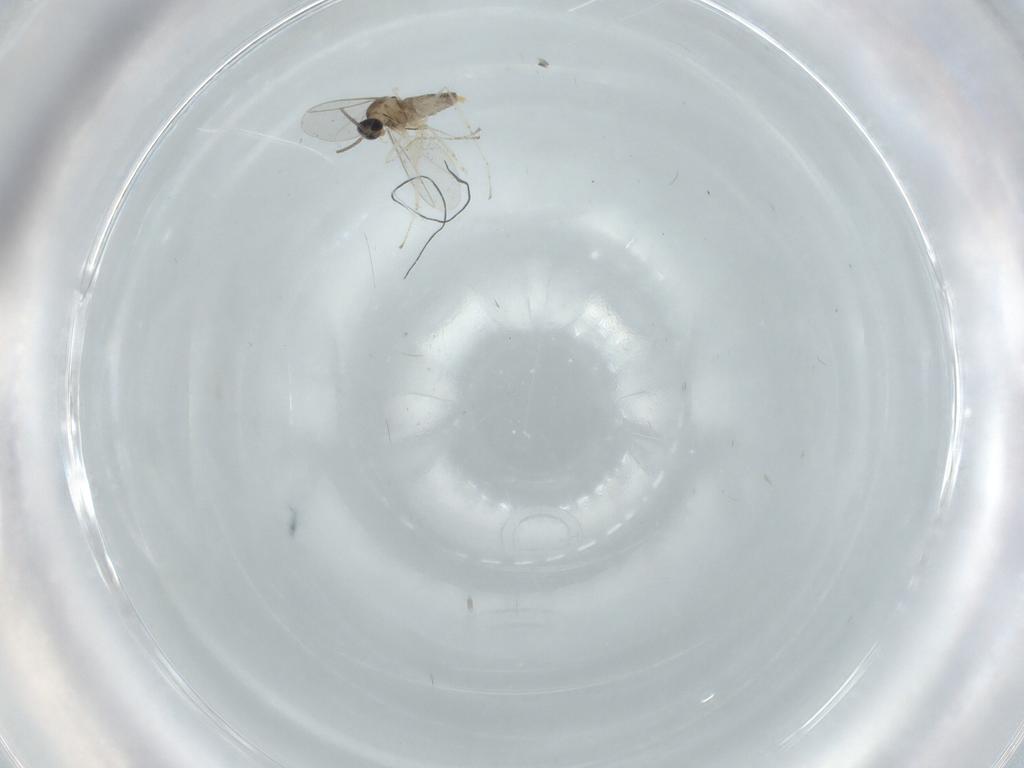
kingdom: Animalia
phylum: Arthropoda
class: Insecta
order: Diptera
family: Cecidomyiidae
